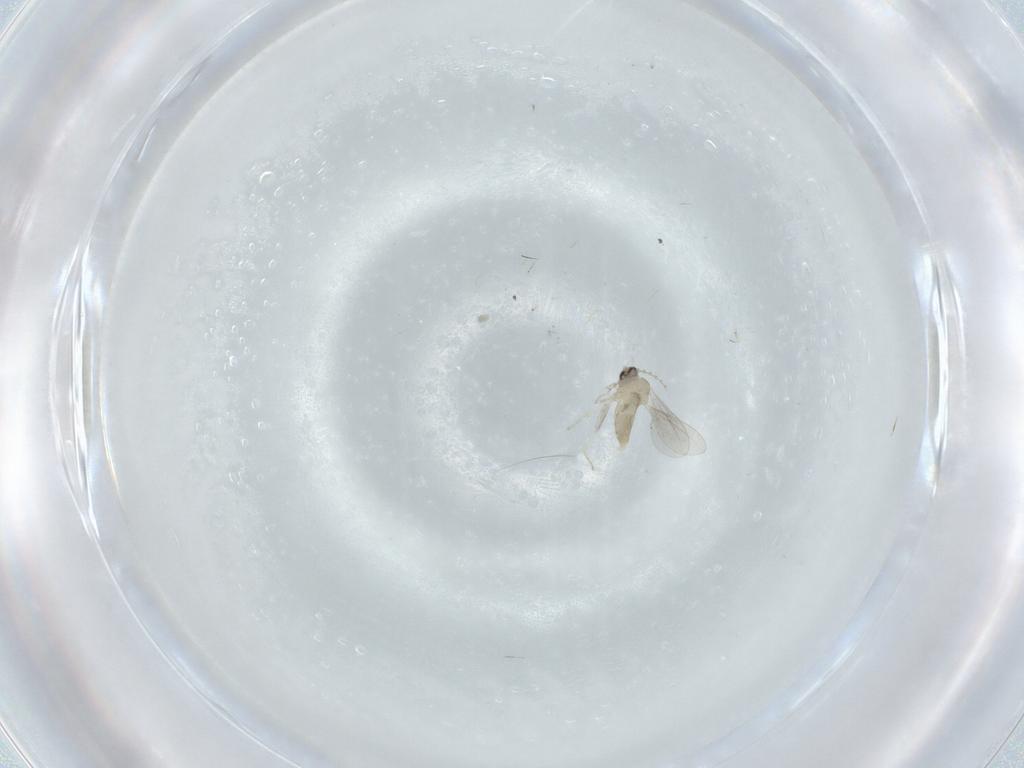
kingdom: Animalia
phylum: Arthropoda
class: Insecta
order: Diptera
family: Cecidomyiidae
